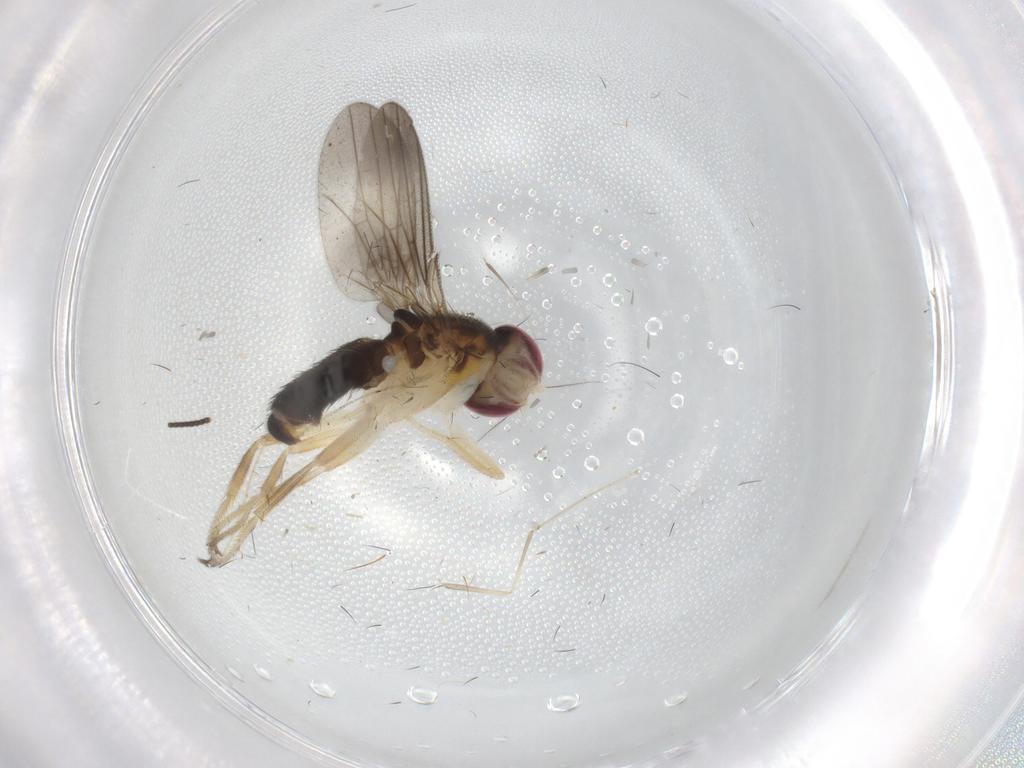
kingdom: Animalia
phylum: Arthropoda
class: Insecta
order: Diptera
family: Sciaridae
